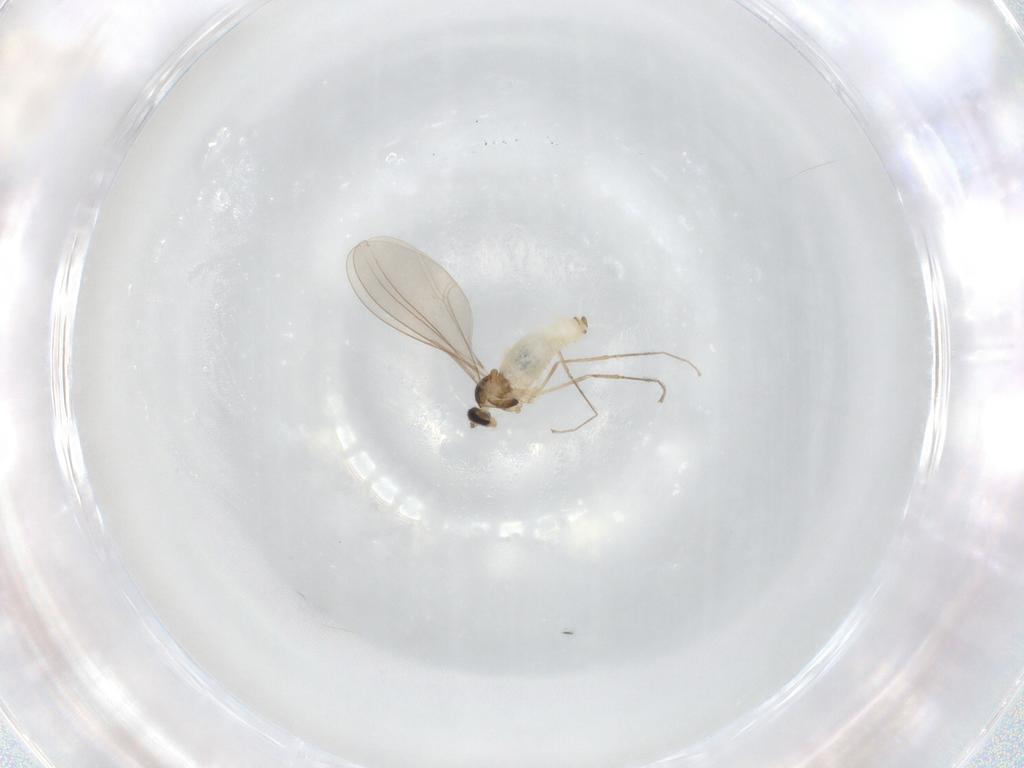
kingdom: Animalia
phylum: Arthropoda
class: Insecta
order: Diptera
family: Cecidomyiidae
